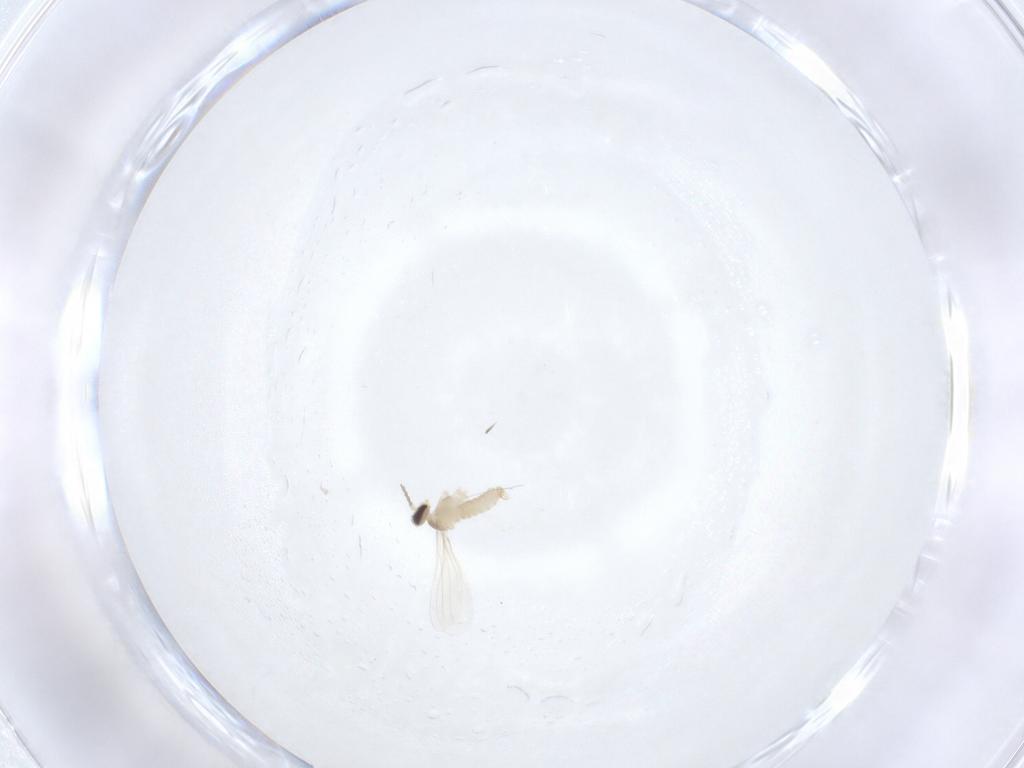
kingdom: Animalia
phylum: Arthropoda
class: Insecta
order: Diptera
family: Cecidomyiidae
